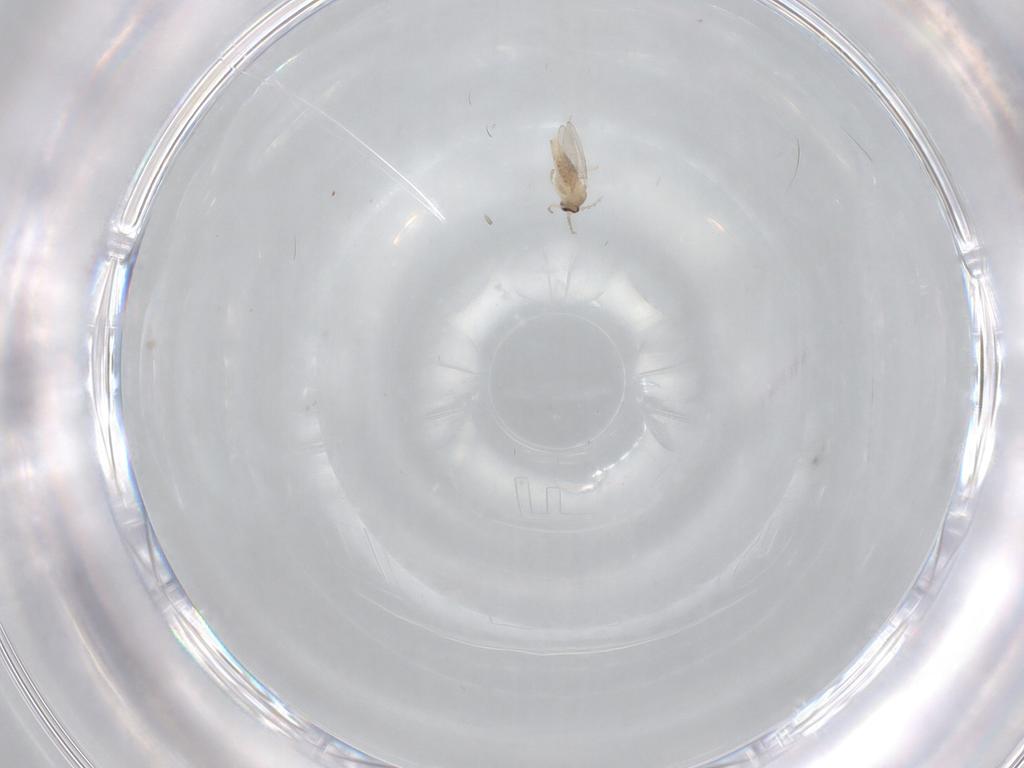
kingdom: Animalia
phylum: Arthropoda
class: Insecta
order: Diptera
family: Cecidomyiidae
